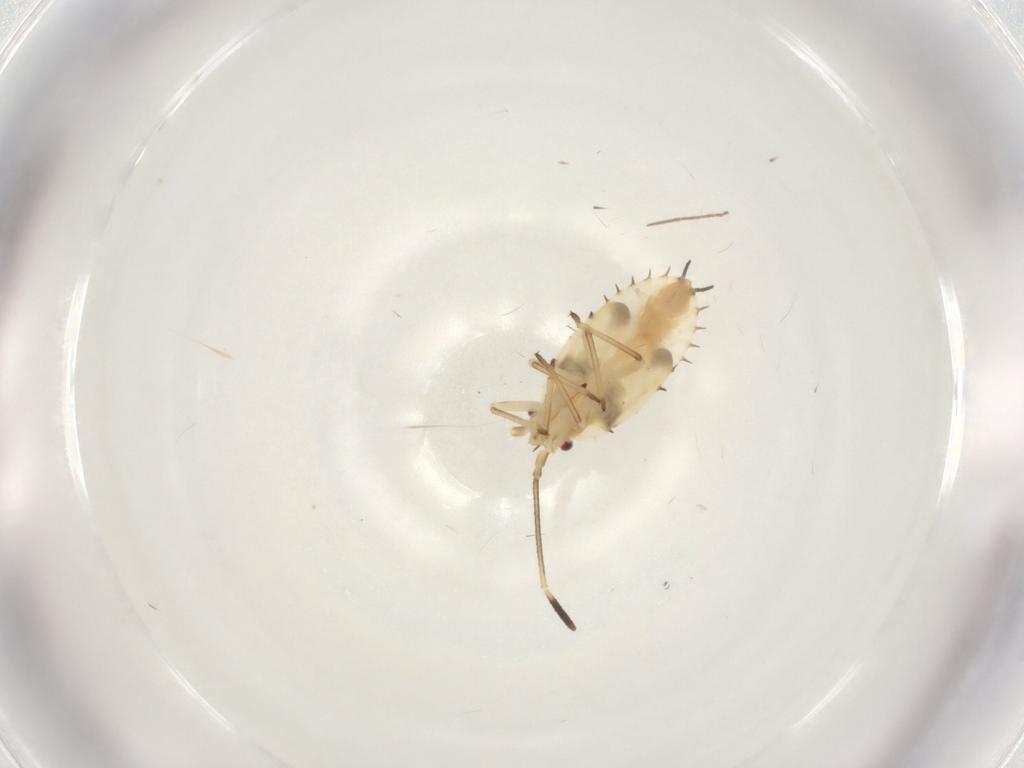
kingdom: Animalia
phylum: Arthropoda
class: Insecta
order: Hemiptera
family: Tingidae
